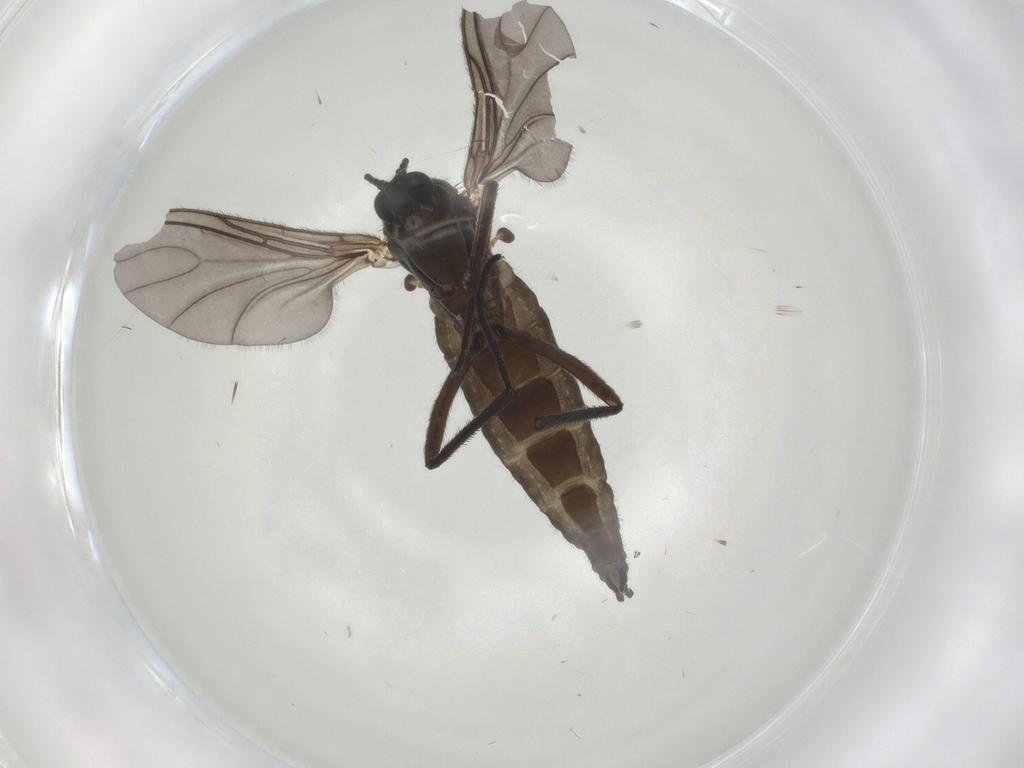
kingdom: Animalia
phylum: Arthropoda
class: Insecta
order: Diptera
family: Sciaridae
